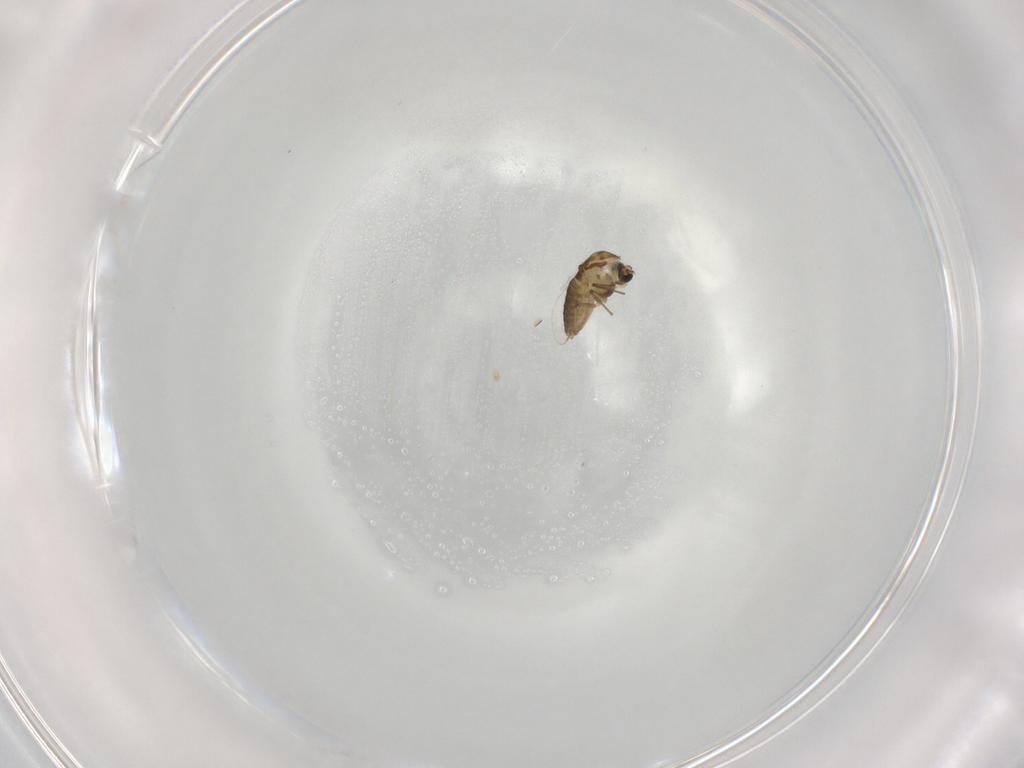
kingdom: Animalia
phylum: Arthropoda
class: Insecta
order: Diptera
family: Chironomidae
